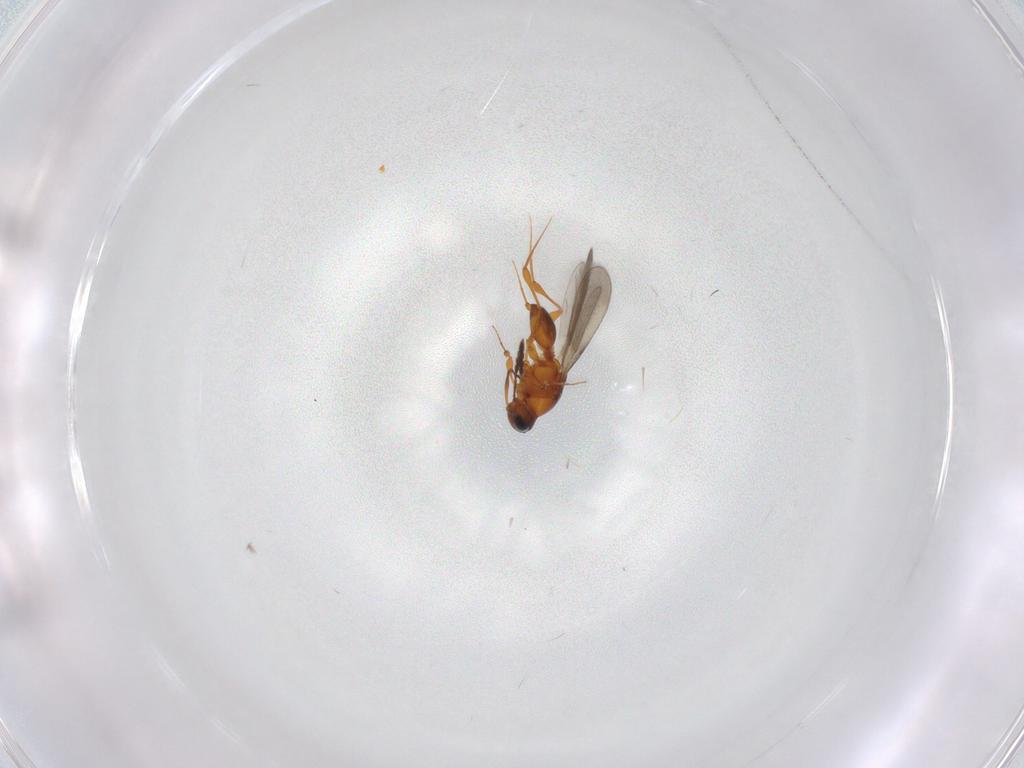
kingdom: Animalia
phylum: Arthropoda
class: Insecta
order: Hymenoptera
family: Platygastridae
